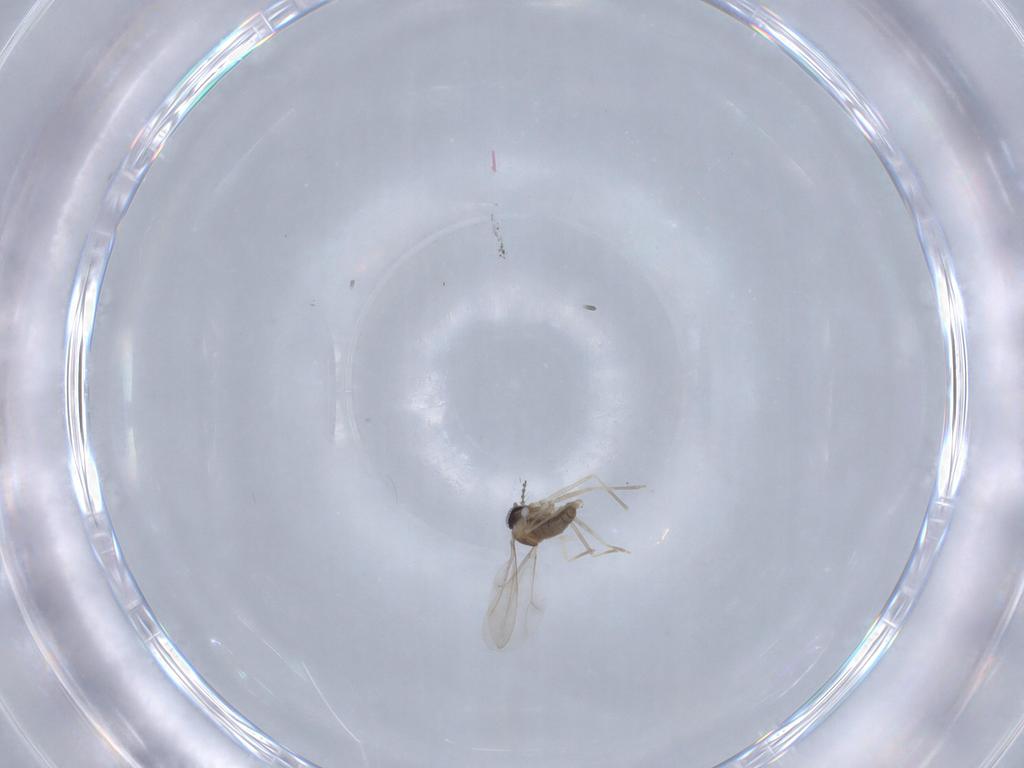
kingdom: Animalia
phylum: Arthropoda
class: Insecta
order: Diptera
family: Cecidomyiidae
